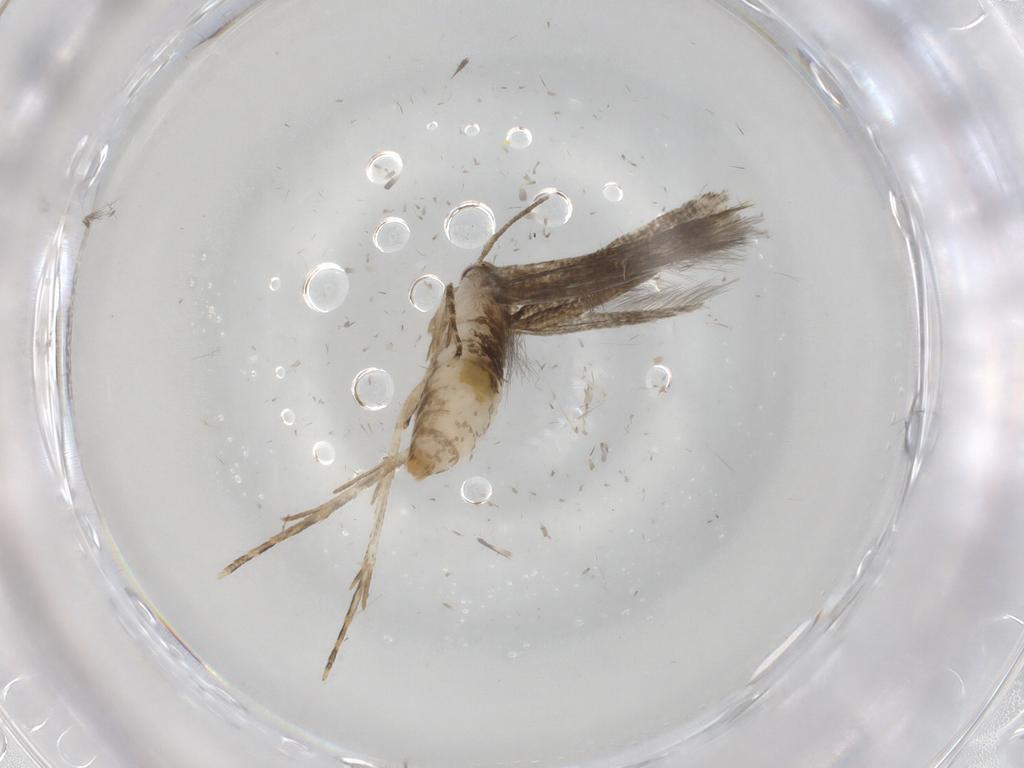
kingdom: Animalia
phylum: Arthropoda
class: Insecta
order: Lepidoptera
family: Cosmopterigidae
